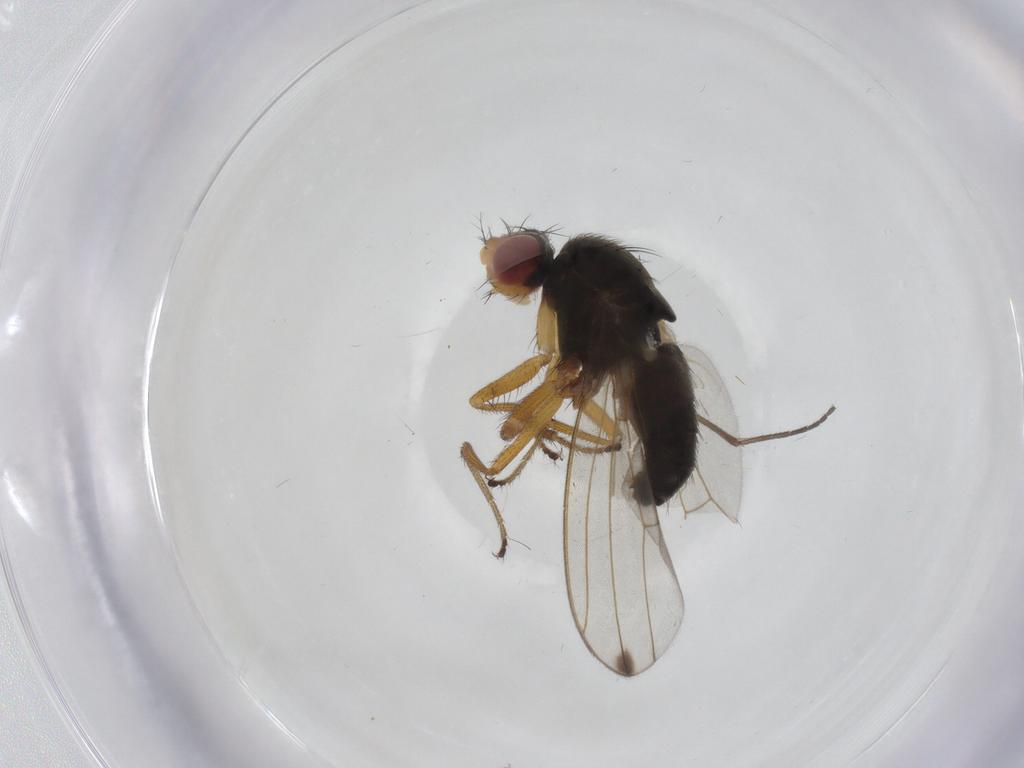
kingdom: Animalia
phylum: Arthropoda
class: Insecta
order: Diptera
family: Drosophilidae
